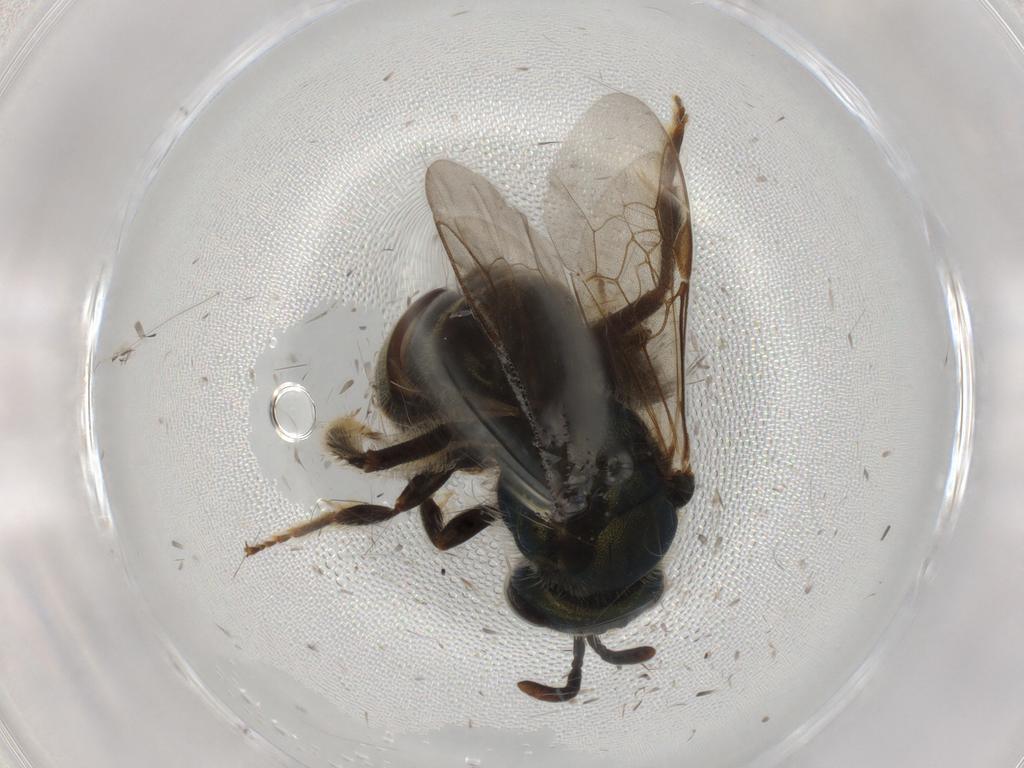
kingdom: Animalia
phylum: Arthropoda
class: Insecta
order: Hymenoptera
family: Halictidae
